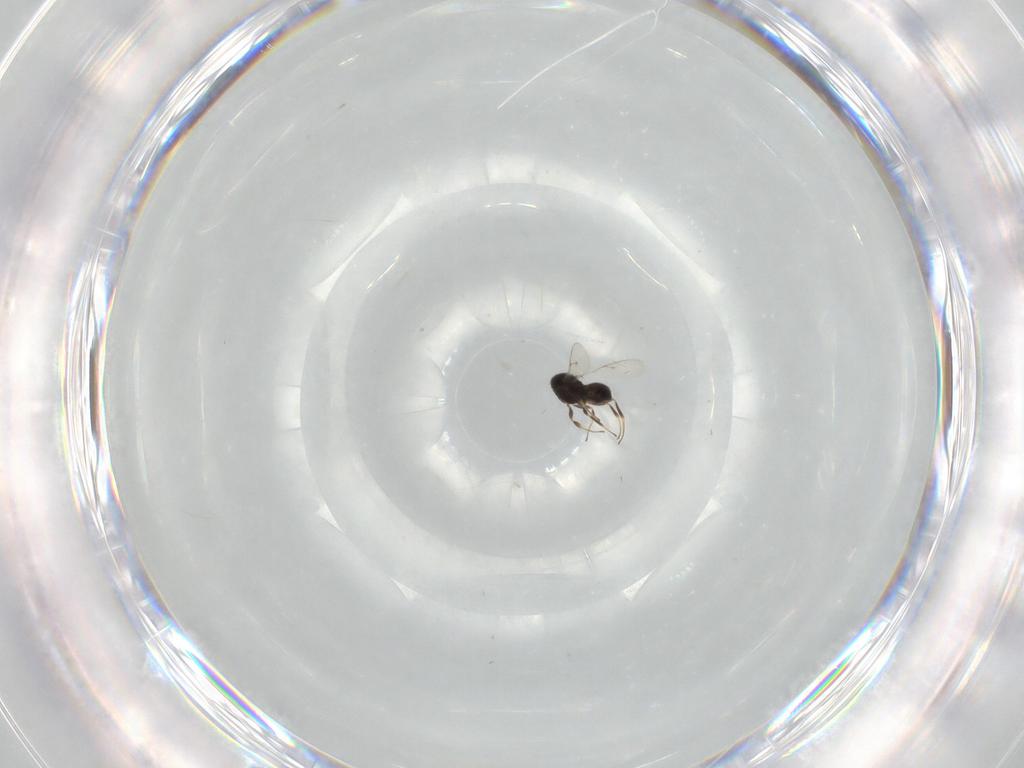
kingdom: Animalia
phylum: Arthropoda
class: Insecta
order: Hymenoptera
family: Scelionidae
